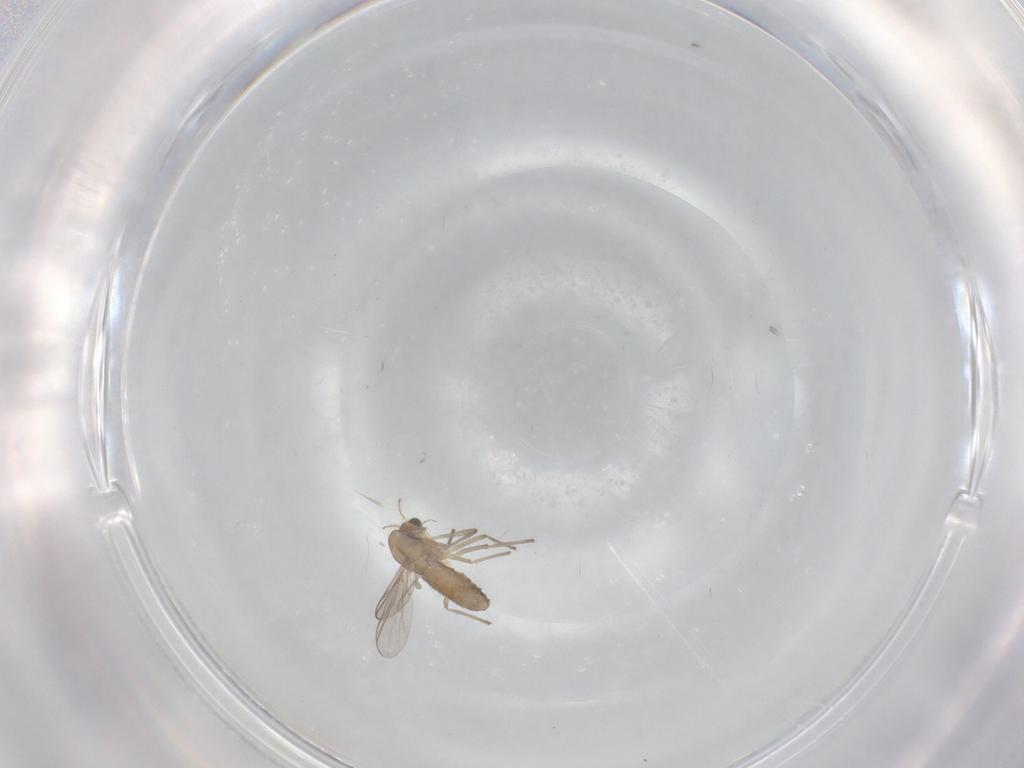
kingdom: Animalia
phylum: Arthropoda
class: Insecta
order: Diptera
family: Chironomidae
